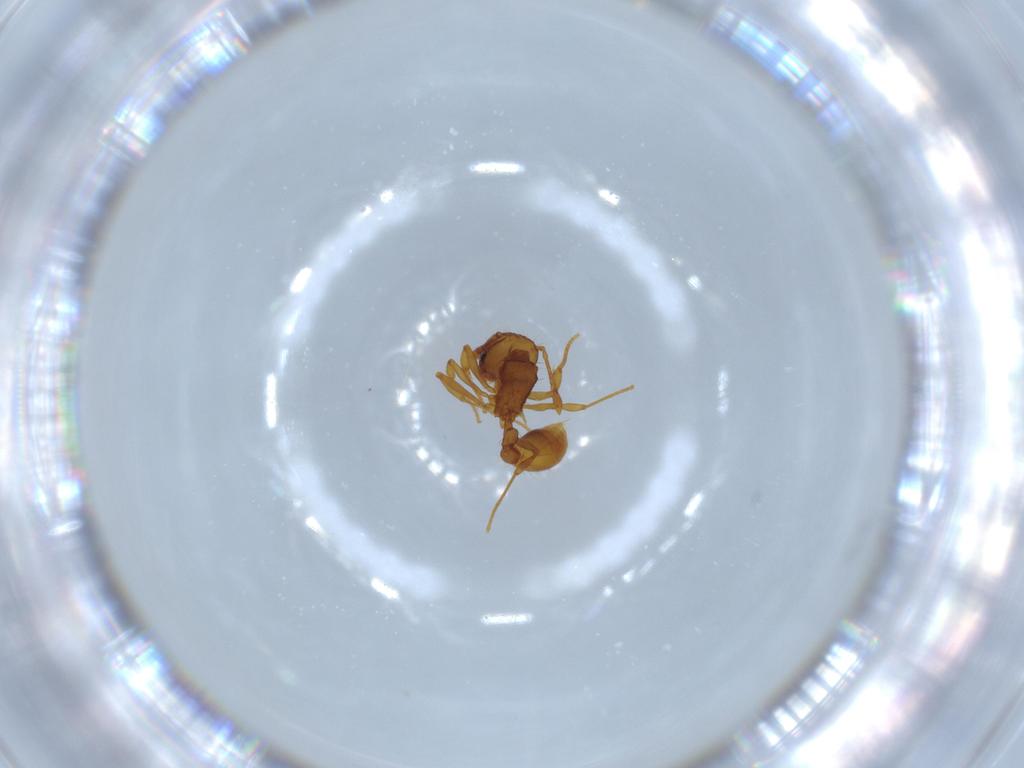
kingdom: Animalia
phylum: Arthropoda
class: Insecta
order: Hymenoptera
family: Formicidae
